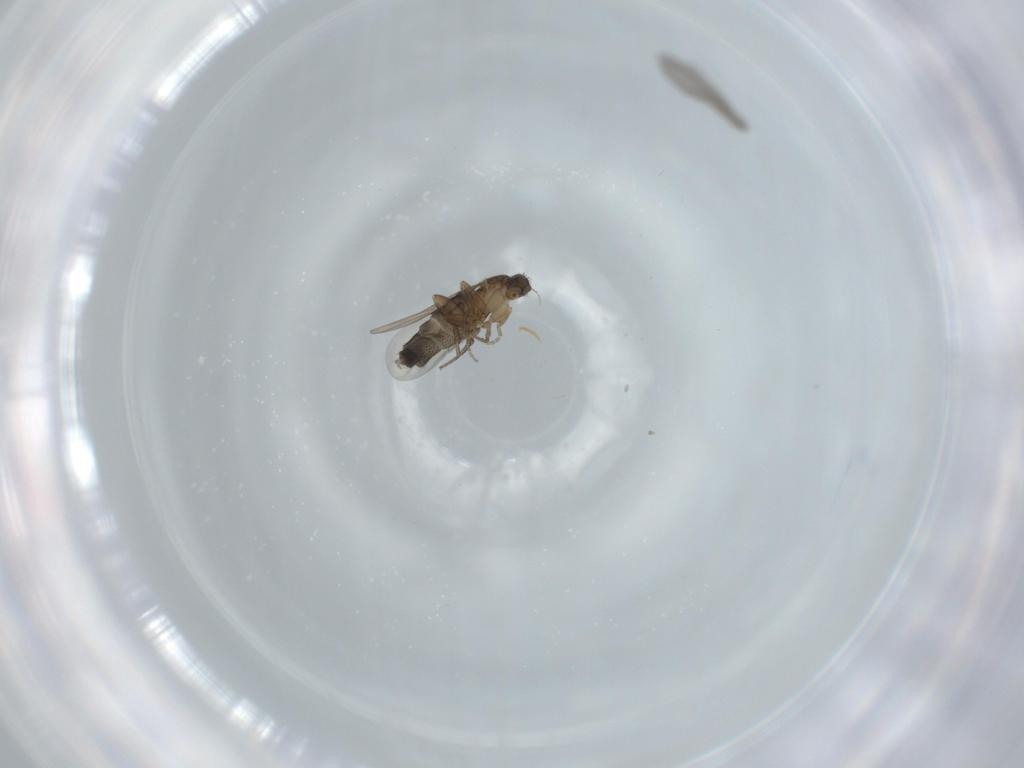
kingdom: Animalia
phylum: Arthropoda
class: Insecta
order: Diptera
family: Phoridae
